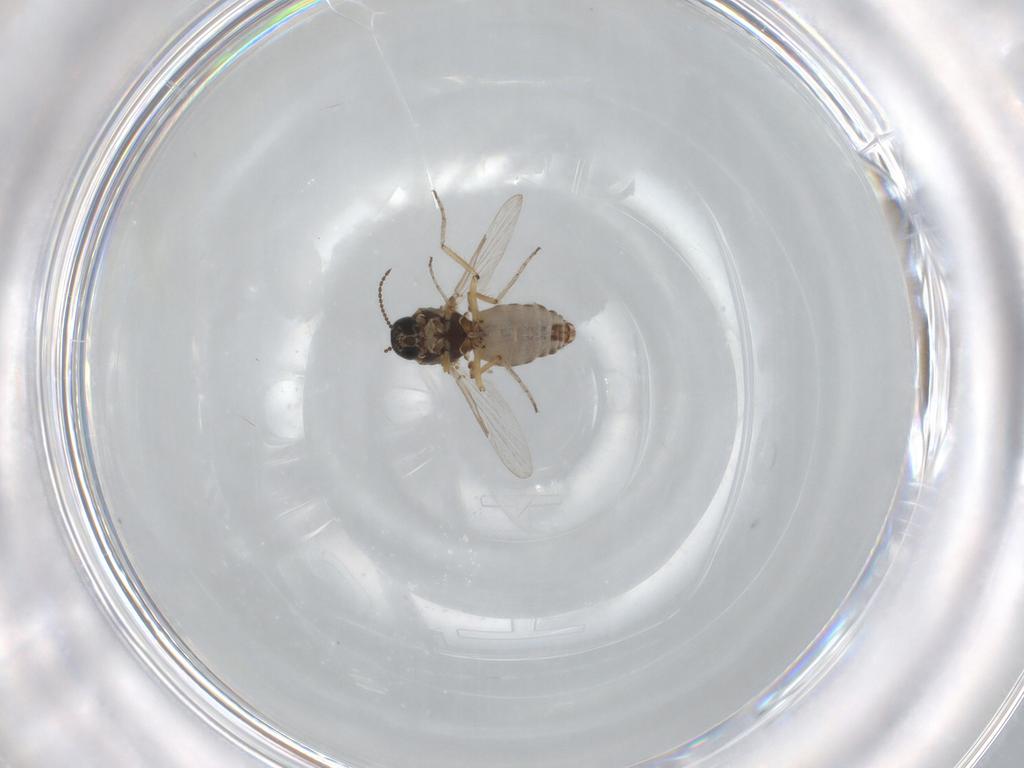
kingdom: Animalia
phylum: Arthropoda
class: Insecta
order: Diptera
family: Ceratopogonidae
